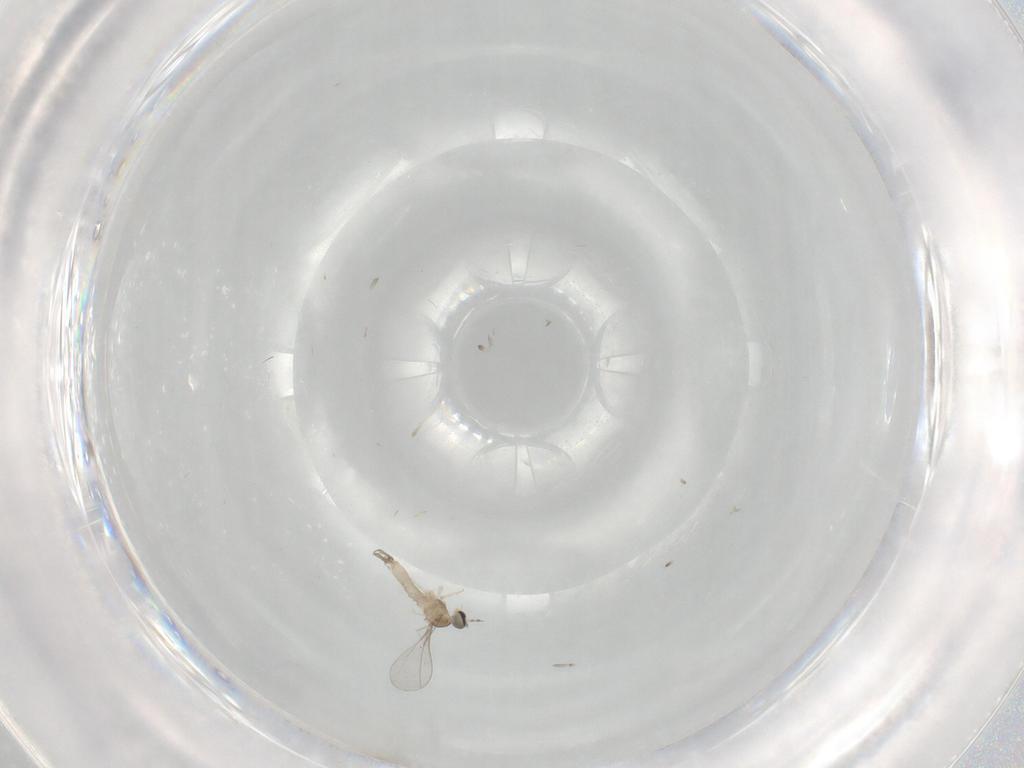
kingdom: Animalia
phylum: Arthropoda
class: Insecta
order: Diptera
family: Cecidomyiidae
